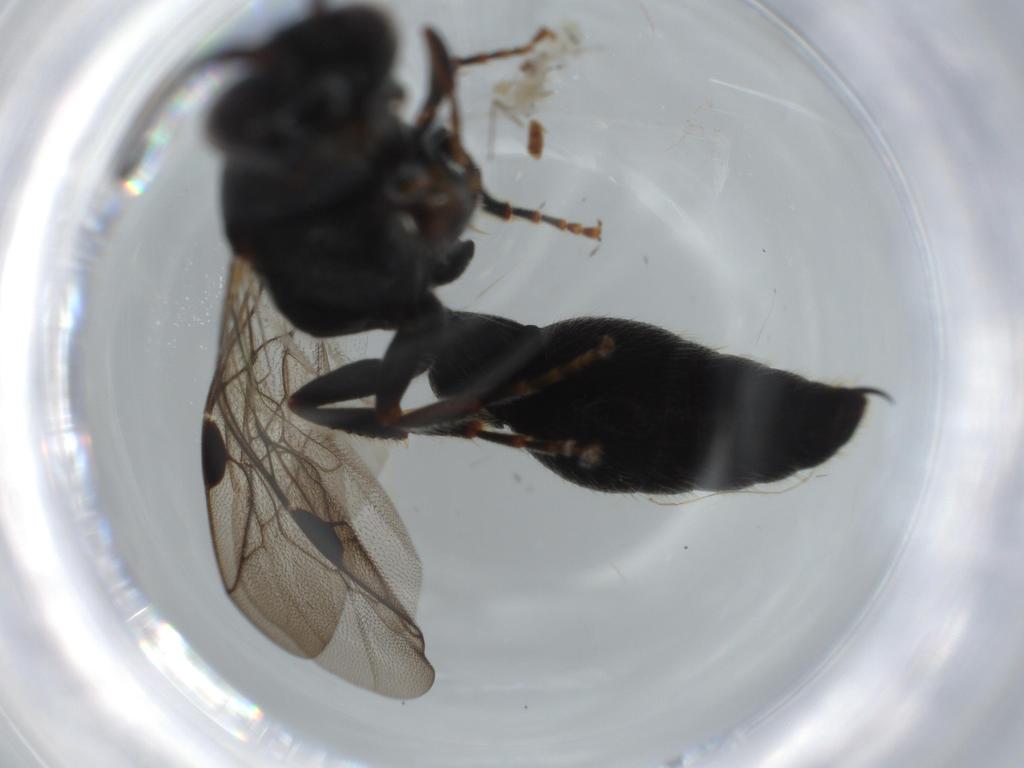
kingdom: Animalia
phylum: Arthropoda
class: Insecta
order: Hymenoptera
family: Tiphiidae
